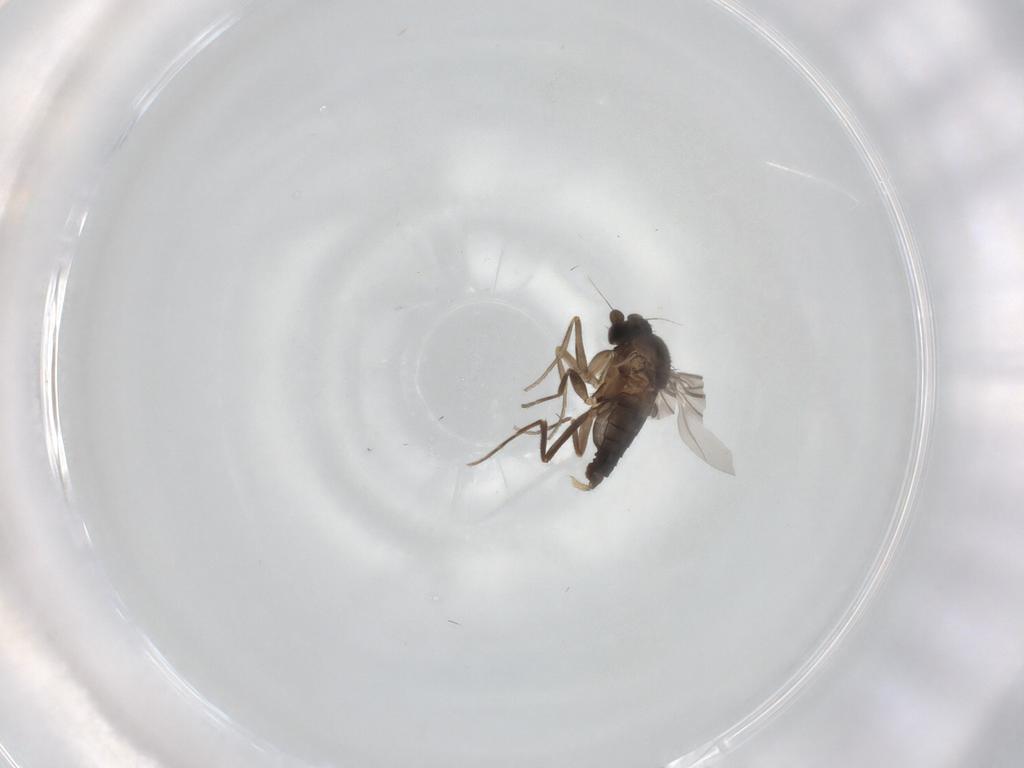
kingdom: Animalia
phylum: Arthropoda
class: Insecta
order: Diptera
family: Phoridae
